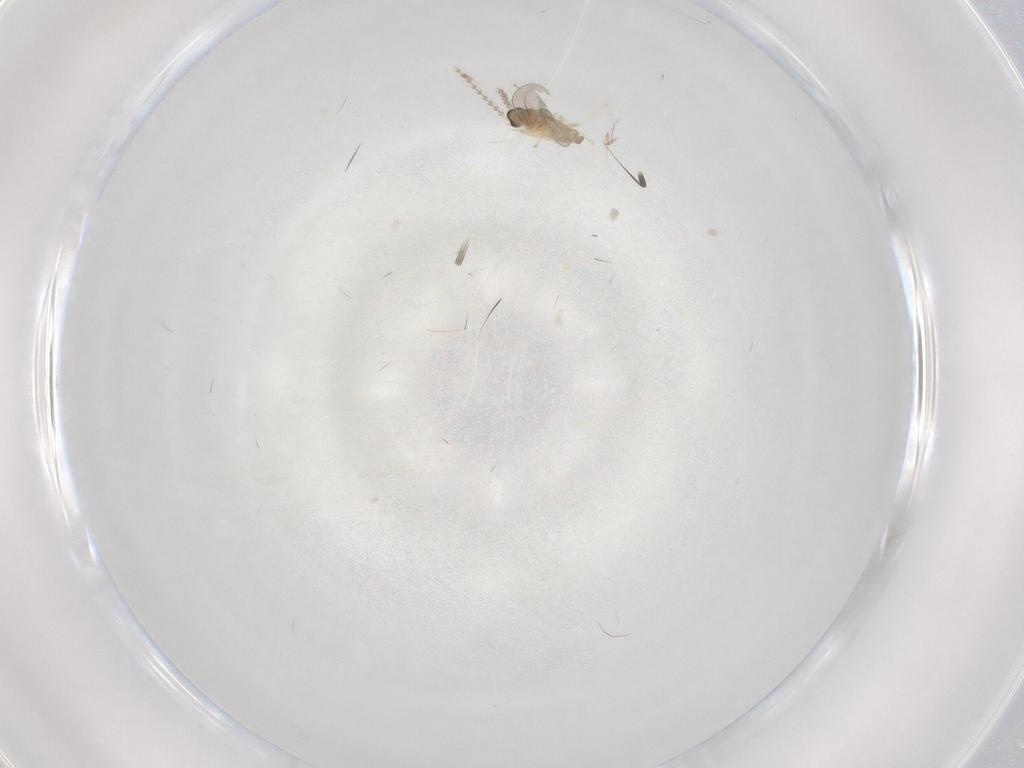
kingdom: Animalia
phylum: Arthropoda
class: Insecta
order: Diptera
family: Cecidomyiidae
